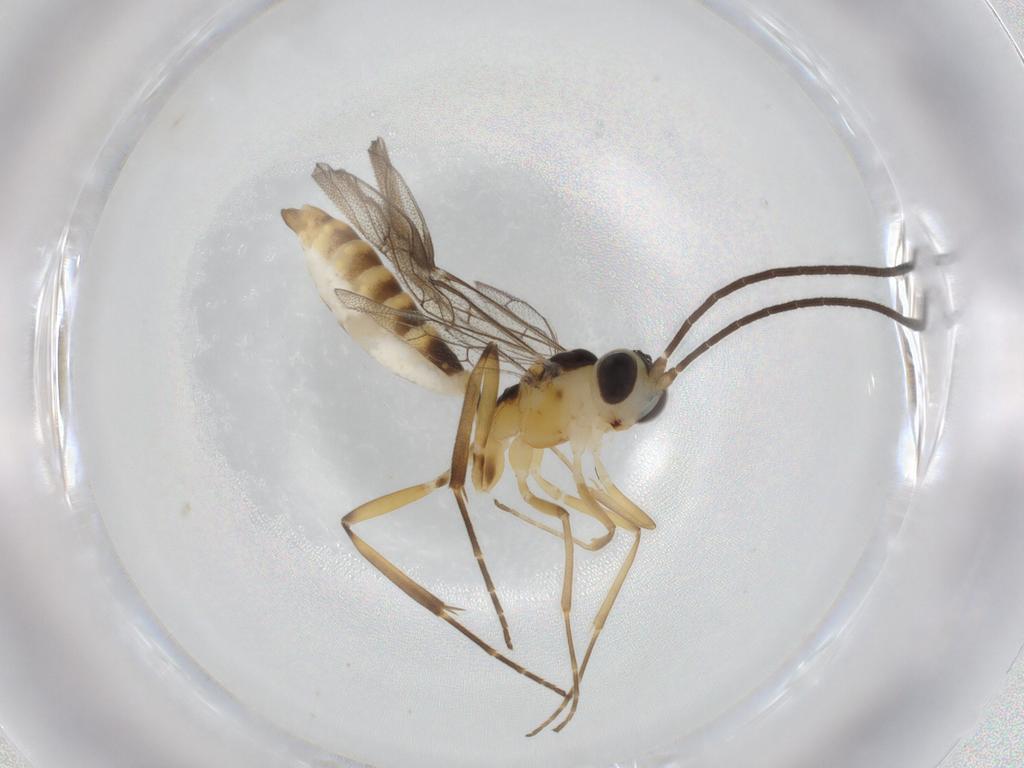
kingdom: Animalia
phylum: Arthropoda
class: Insecta
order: Hymenoptera
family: Ichneumonidae
